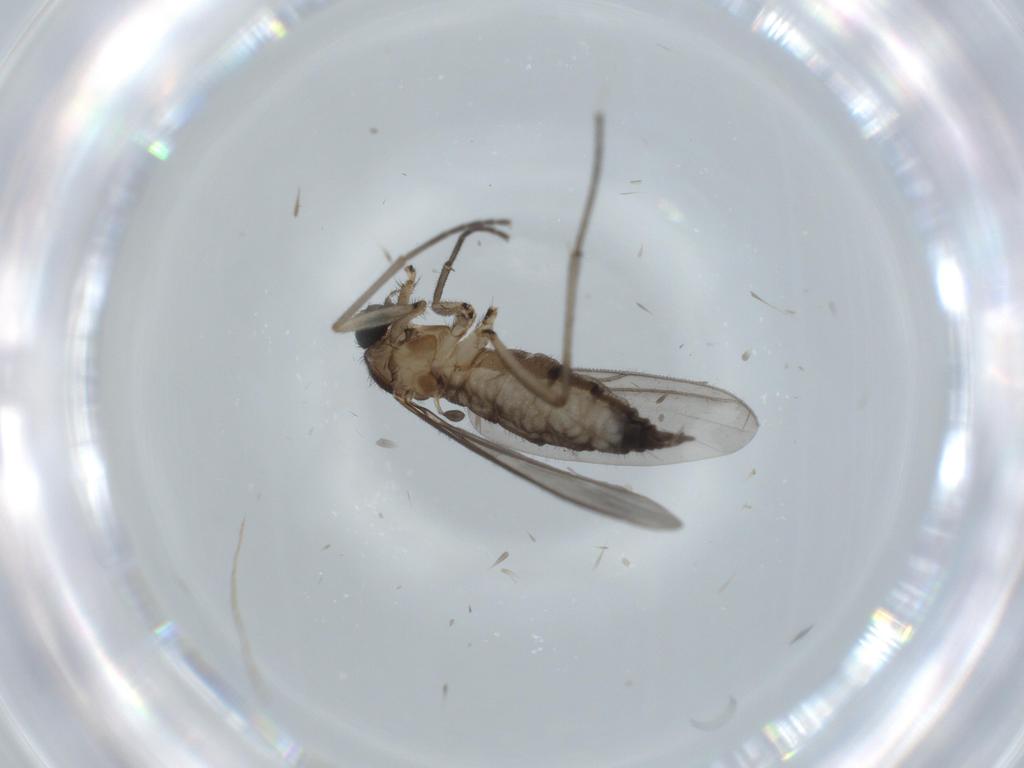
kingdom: Animalia
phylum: Arthropoda
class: Insecta
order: Diptera
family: Sciaridae
